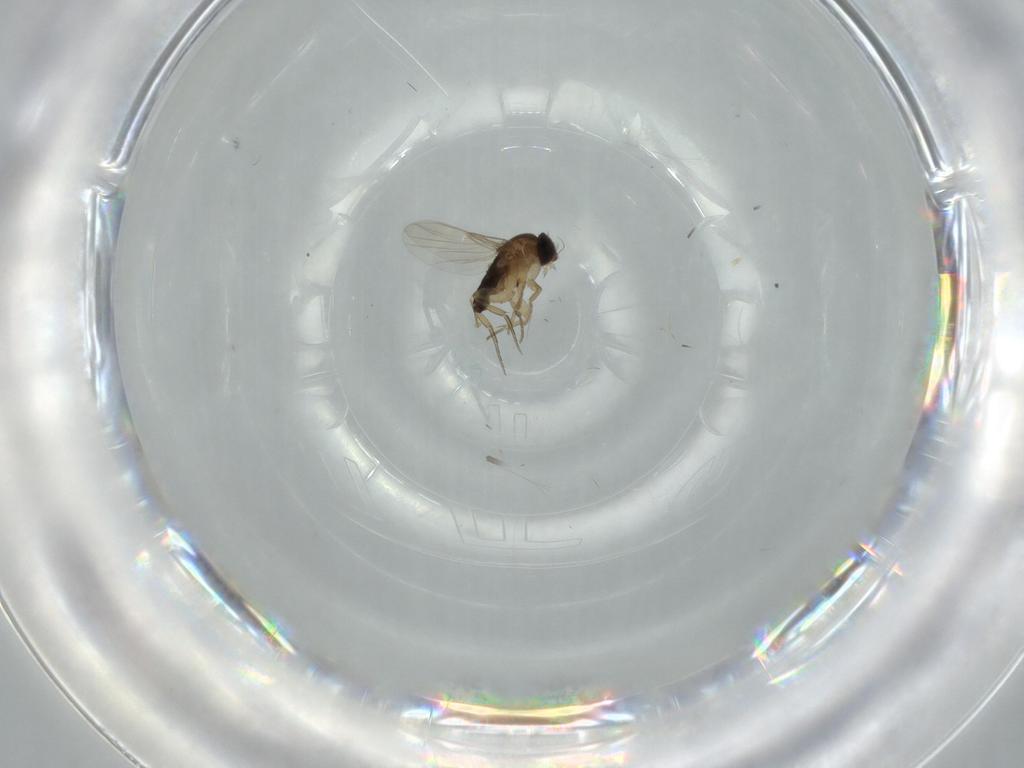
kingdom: Animalia
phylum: Arthropoda
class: Insecta
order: Diptera
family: Phoridae
